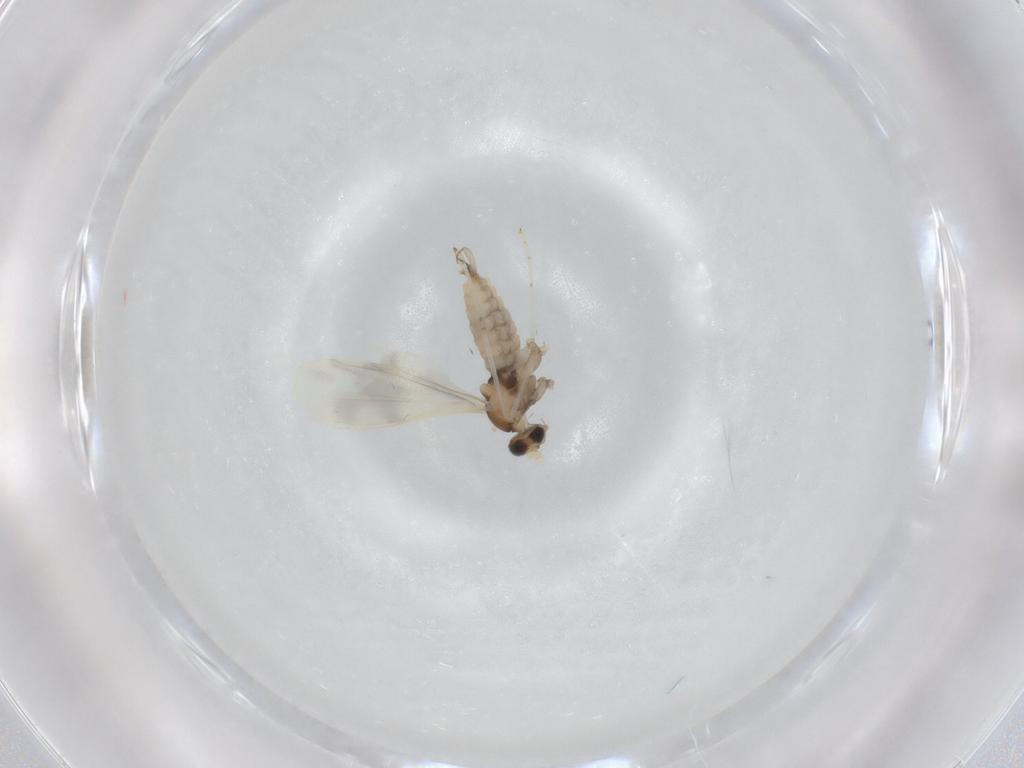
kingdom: Animalia
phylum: Arthropoda
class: Insecta
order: Diptera
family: Cecidomyiidae
